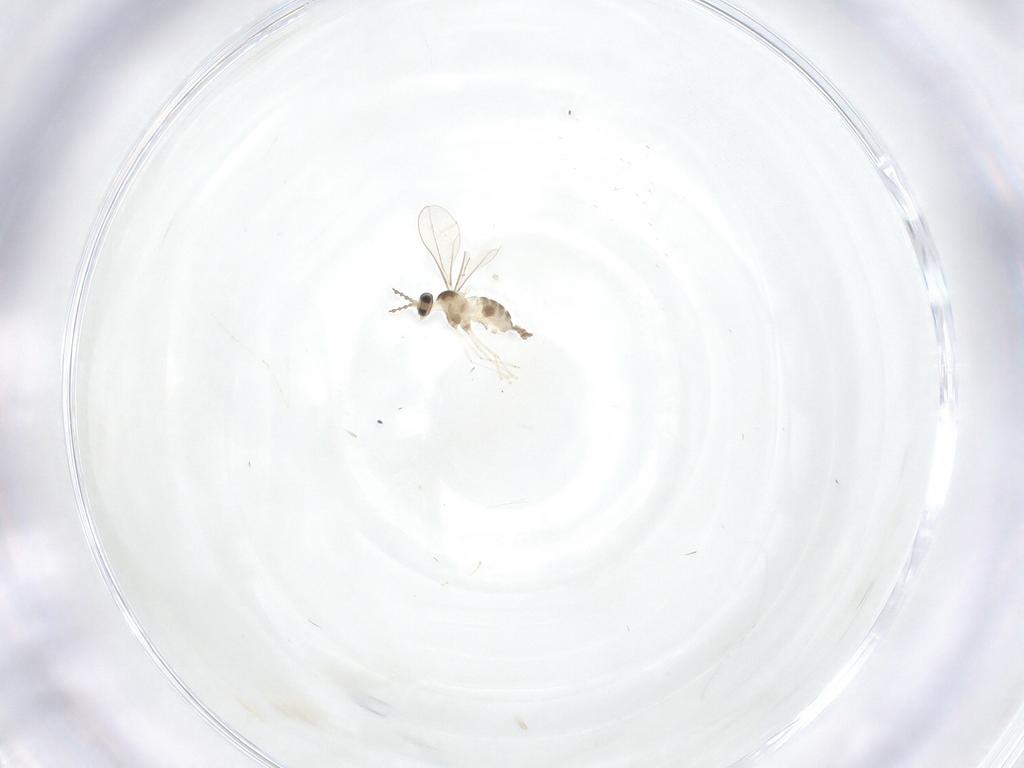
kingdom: Animalia
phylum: Arthropoda
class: Insecta
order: Diptera
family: Cecidomyiidae
